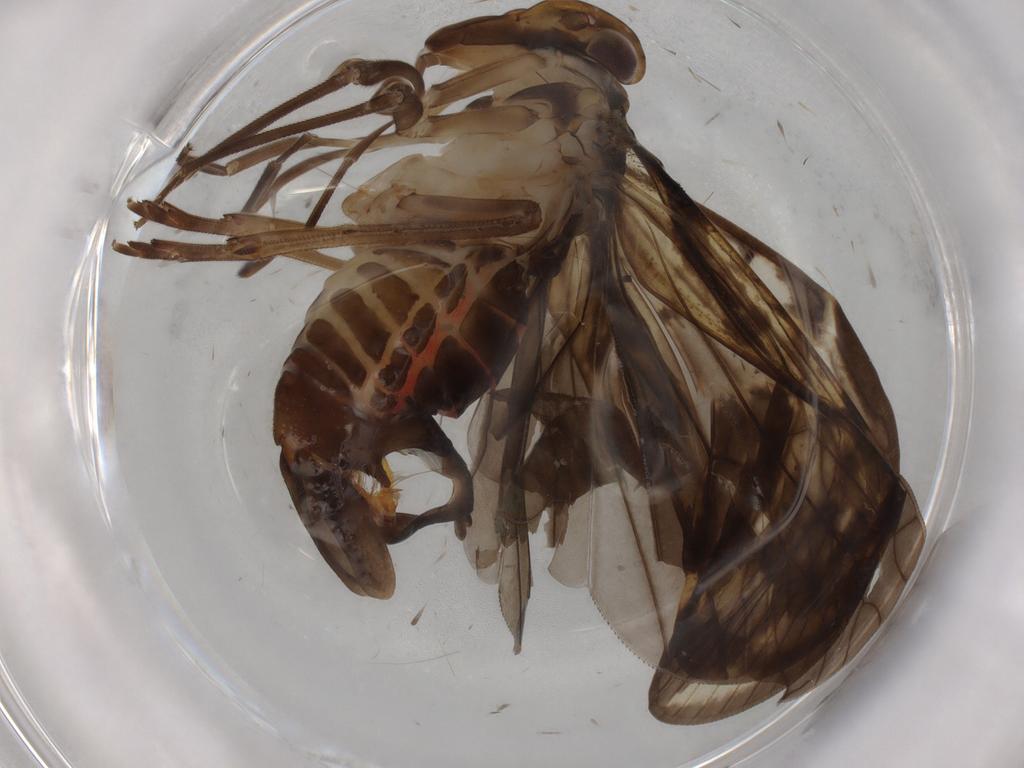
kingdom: Animalia
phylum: Arthropoda
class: Insecta
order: Hemiptera
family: Cixiidae
